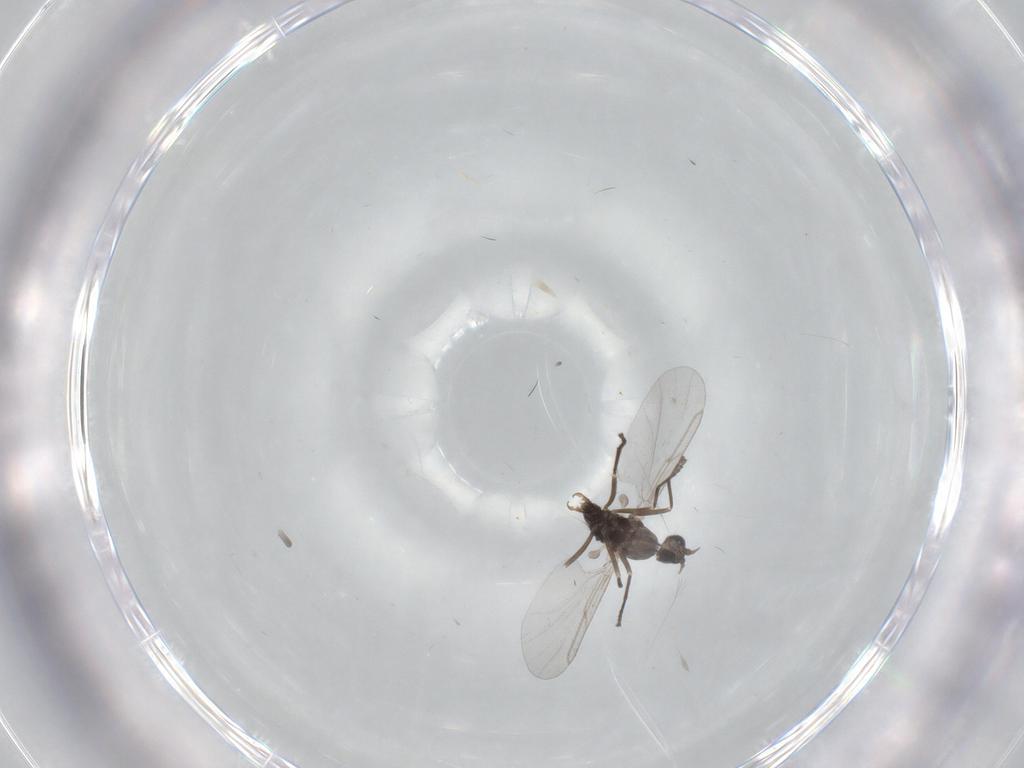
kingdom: Animalia
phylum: Arthropoda
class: Insecta
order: Diptera
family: Cecidomyiidae
